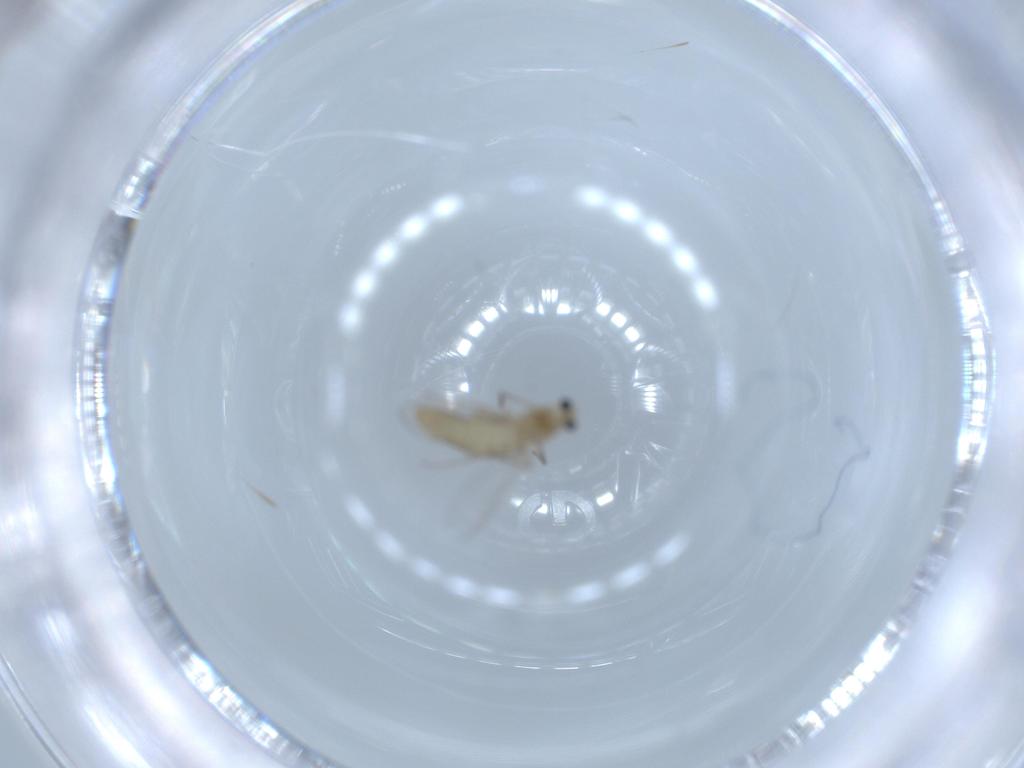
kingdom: Animalia
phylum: Arthropoda
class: Insecta
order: Diptera
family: Chironomidae
